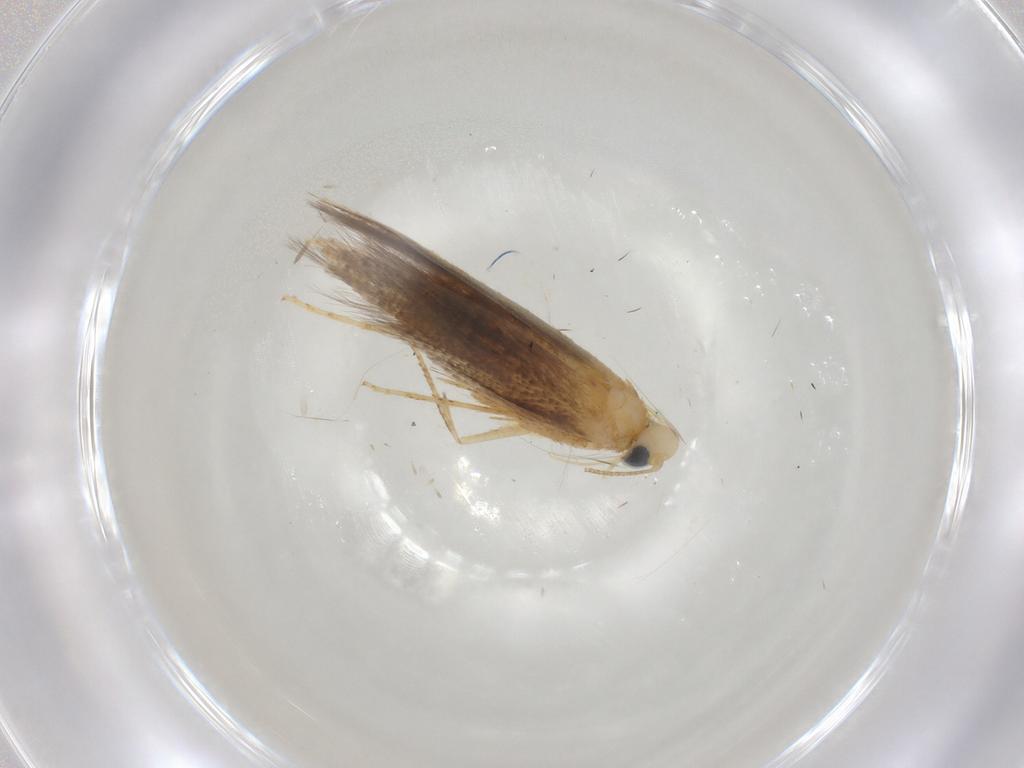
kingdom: Animalia
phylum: Arthropoda
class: Insecta
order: Lepidoptera
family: Tischeriidae
